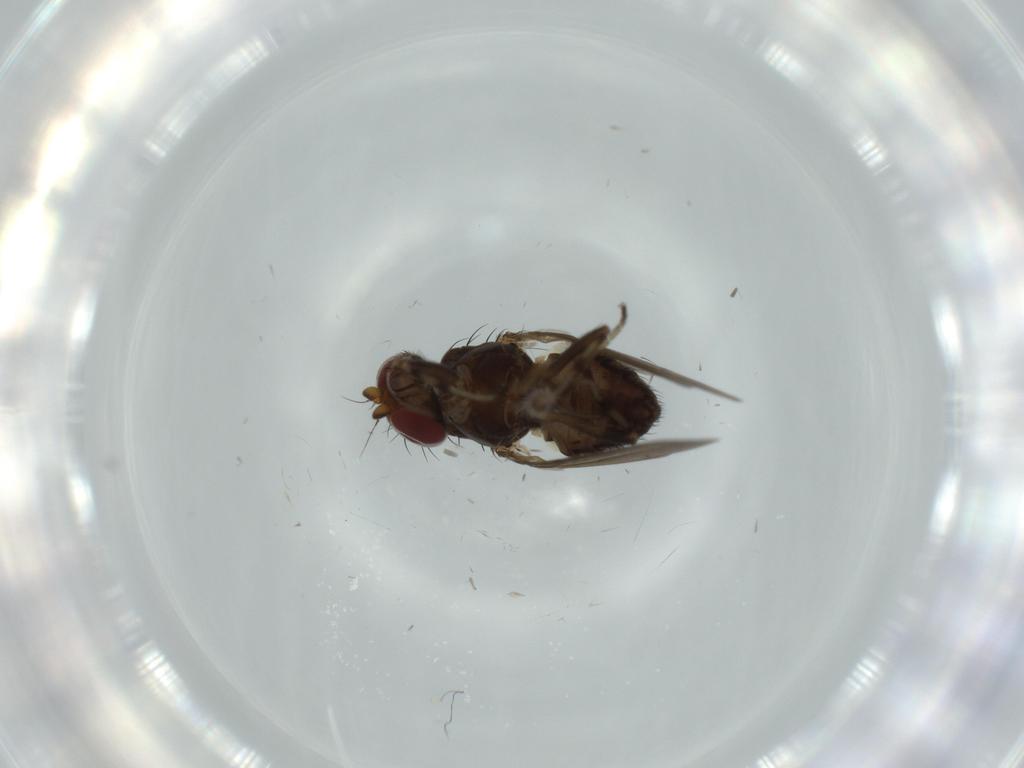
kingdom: Animalia
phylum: Arthropoda
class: Insecta
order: Diptera
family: Heleomyzidae
